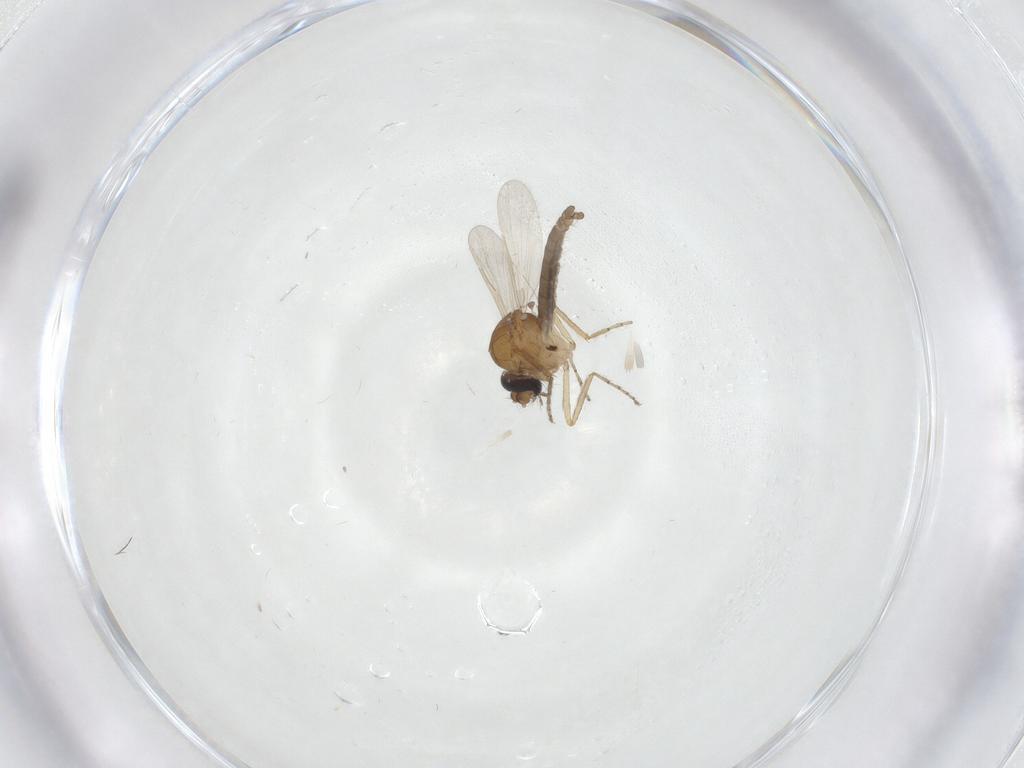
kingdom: Animalia
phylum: Arthropoda
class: Insecta
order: Diptera
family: Ceratopogonidae
